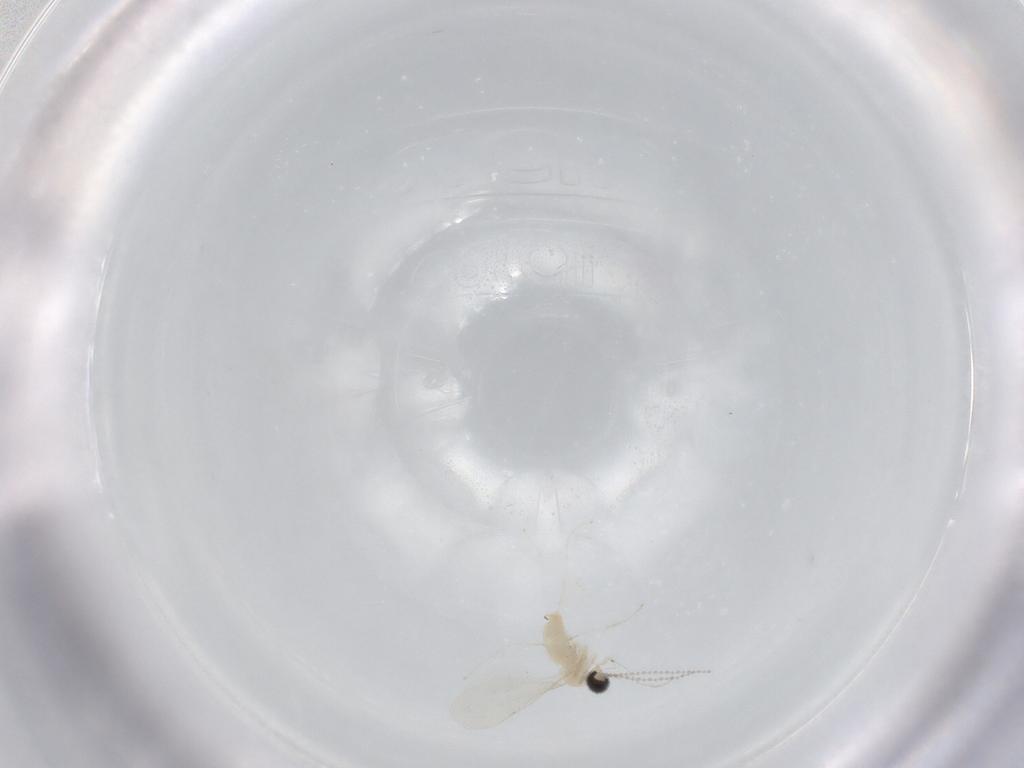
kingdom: Animalia
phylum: Arthropoda
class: Insecta
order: Diptera
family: Cecidomyiidae
